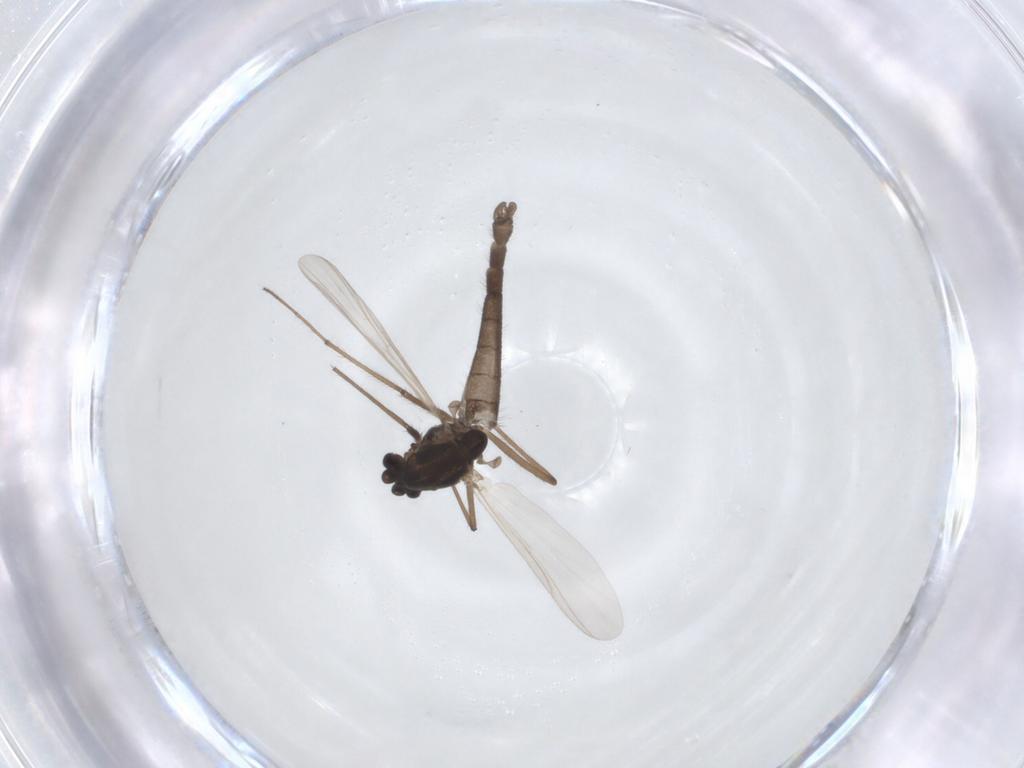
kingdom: Animalia
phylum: Arthropoda
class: Insecta
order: Diptera
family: Chironomidae
